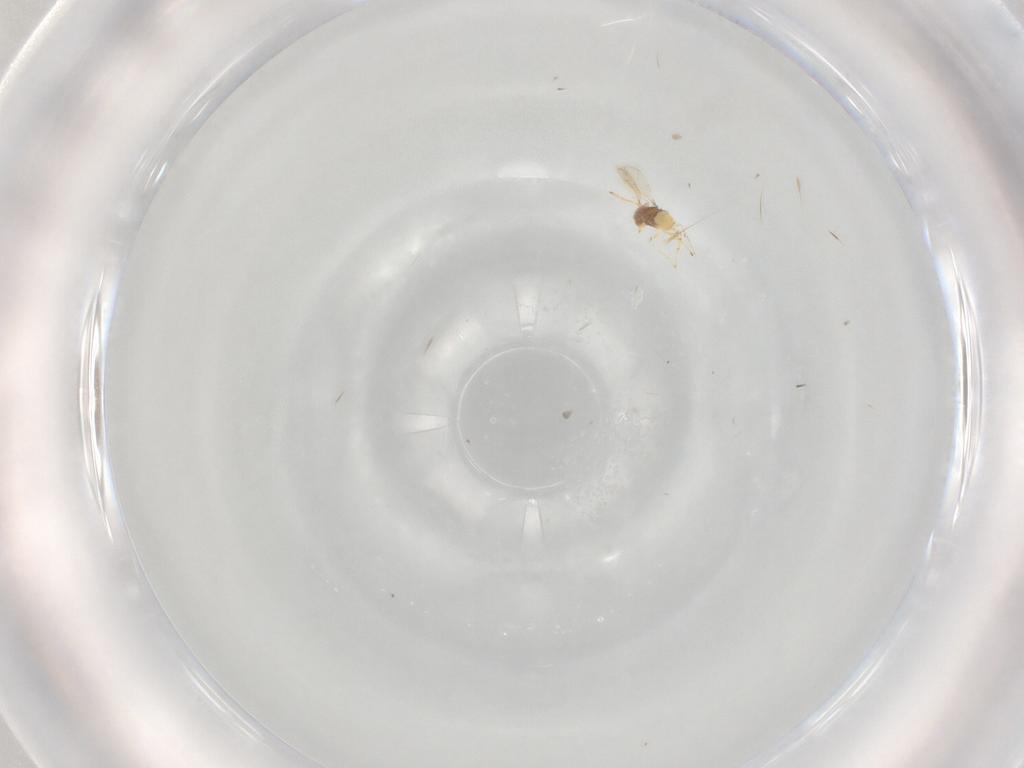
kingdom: Animalia
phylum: Arthropoda
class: Insecta
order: Hymenoptera
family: Aphelinidae
